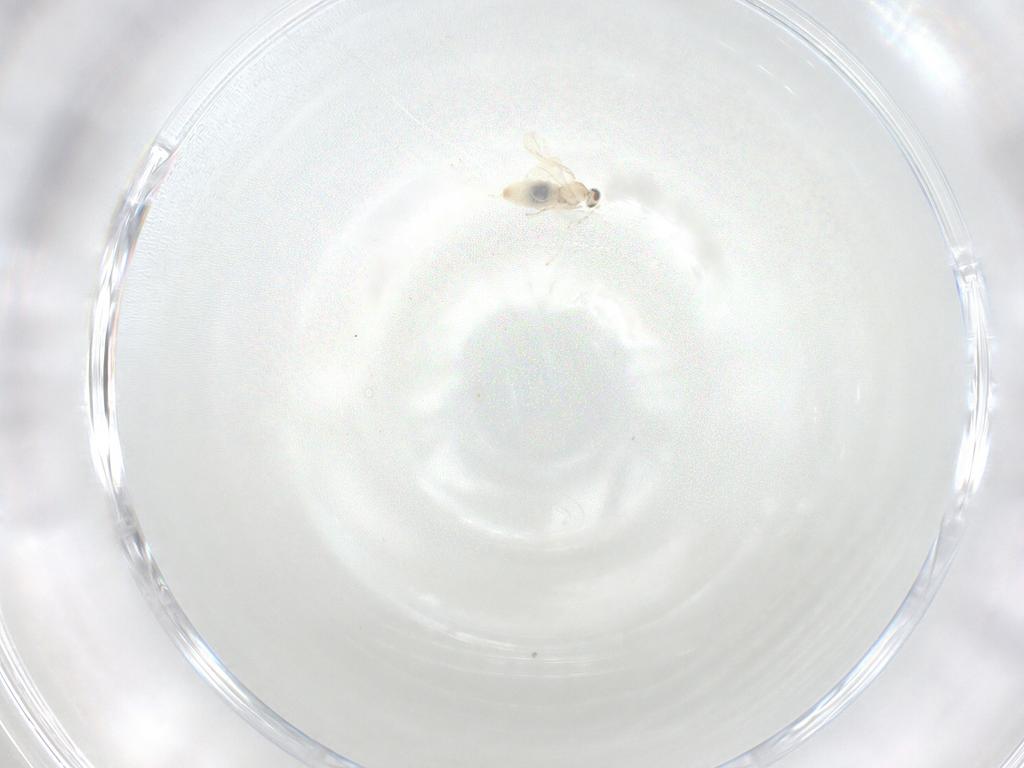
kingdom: Animalia
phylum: Arthropoda
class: Insecta
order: Diptera
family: Cecidomyiidae
